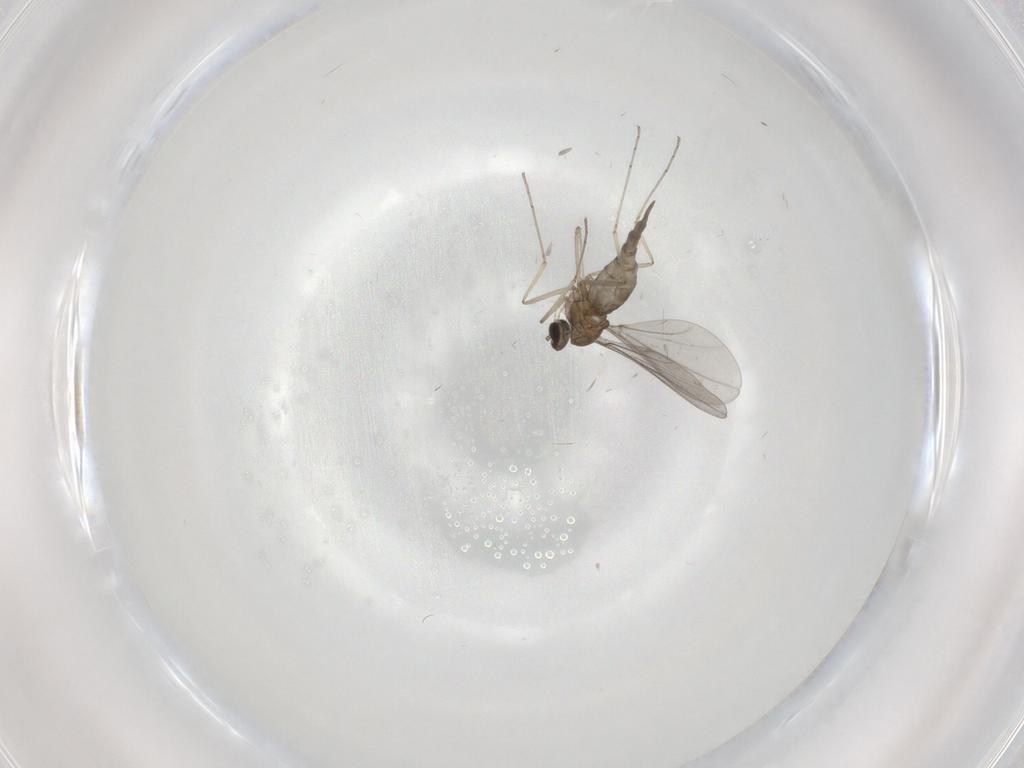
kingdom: Animalia
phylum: Arthropoda
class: Insecta
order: Diptera
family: Cecidomyiidae
